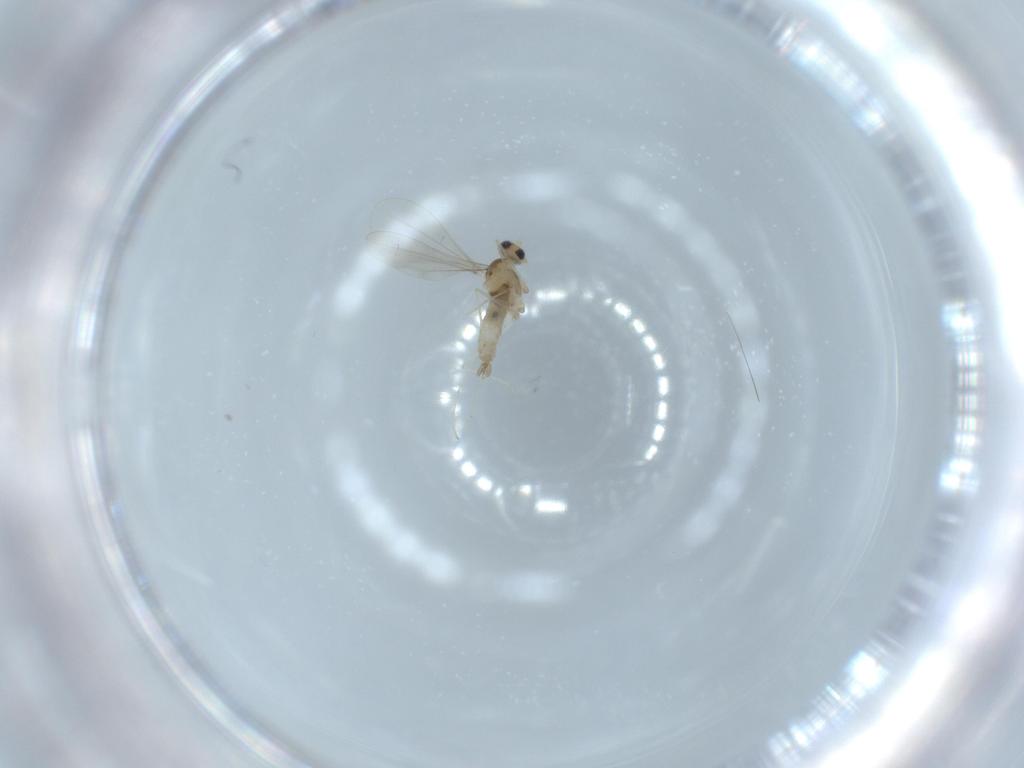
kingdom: Animalia
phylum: Arthropoda
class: Insecta
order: Diptera
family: Cecidomyiidae
